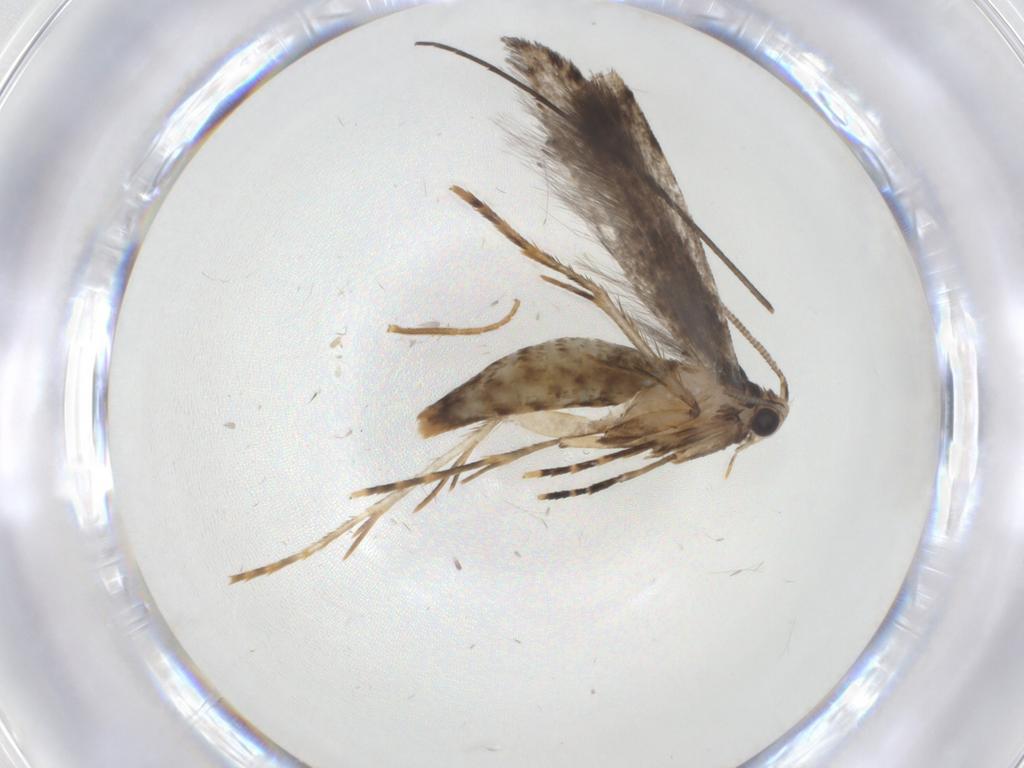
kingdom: Animalia
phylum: Arthropoda
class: Insecta
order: Lepidoptera
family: Tineidae
